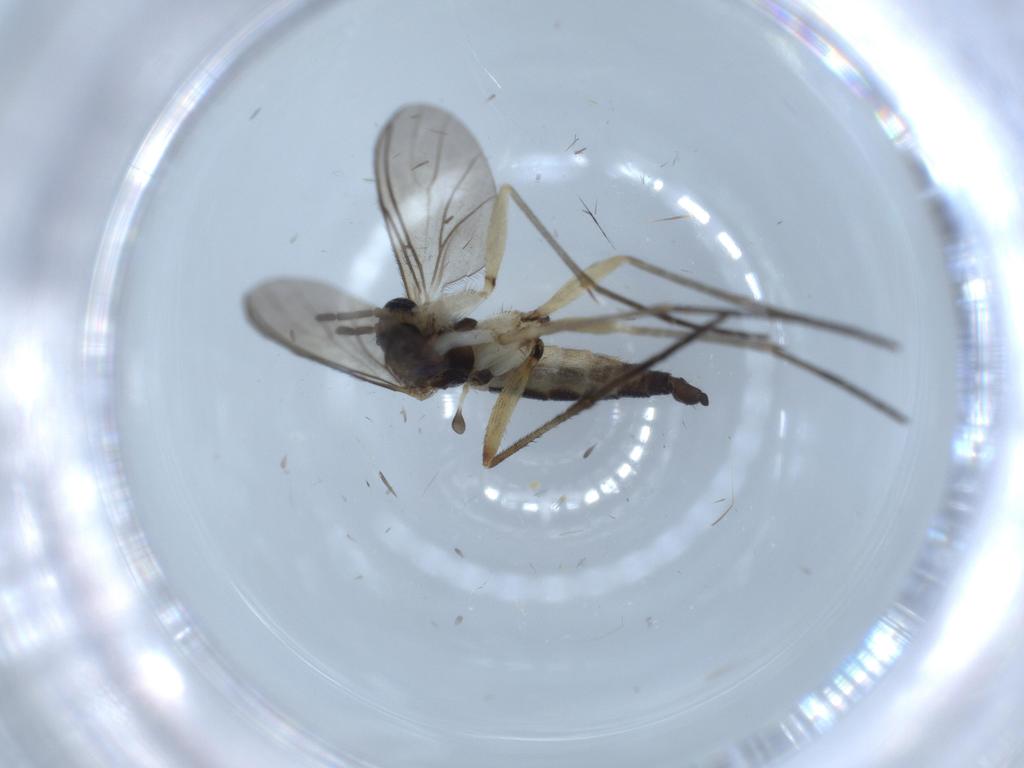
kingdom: Animalia
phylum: Arthropoda
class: Insecta
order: Diptera
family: Sciaridae
